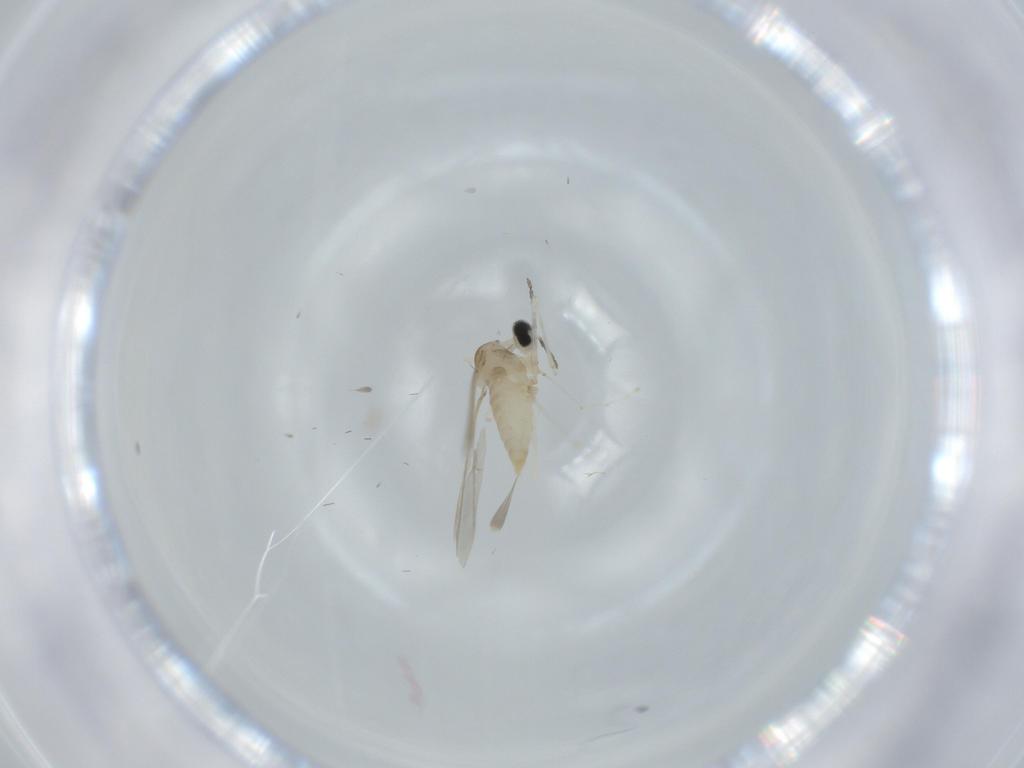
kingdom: Animalia
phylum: Arthropoda
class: Insecta
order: Diptera
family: Cecidomyiidae
